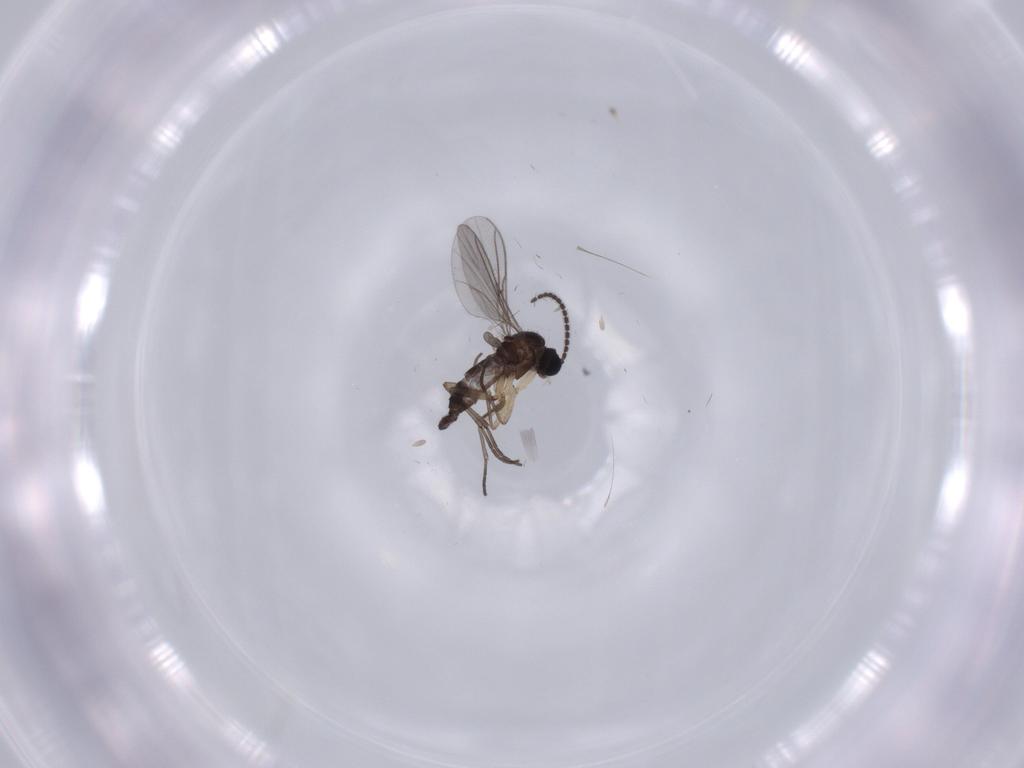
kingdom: Animalia
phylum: Arthropoda
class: Insecta
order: Diptera
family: Sciaridae
